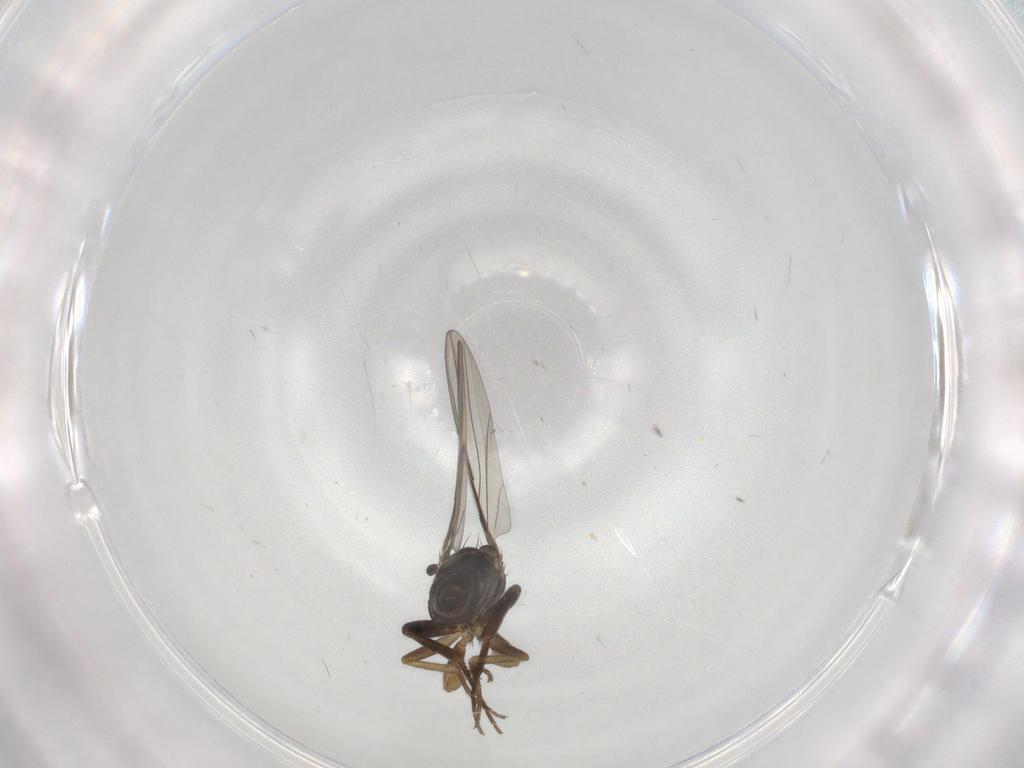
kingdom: Animalia
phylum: Arthropoda
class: Insecta
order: Diptera
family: Phoridae
